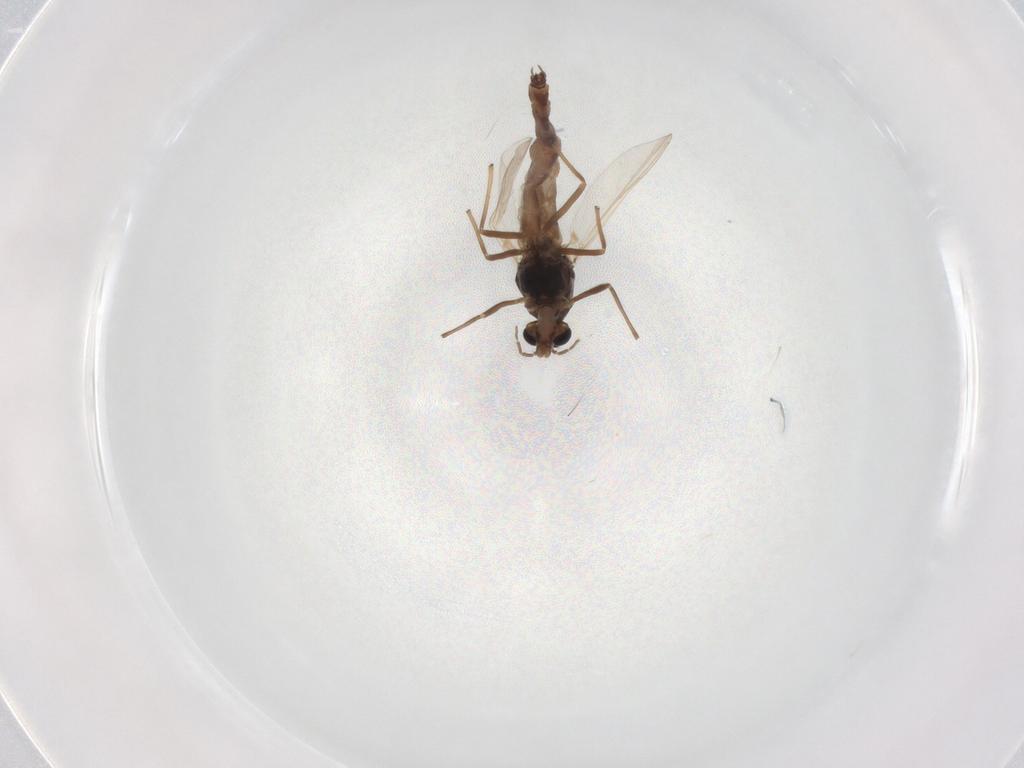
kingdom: Animalia
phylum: Arthropoda
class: Insecta
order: Diptera
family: Chironomidae
